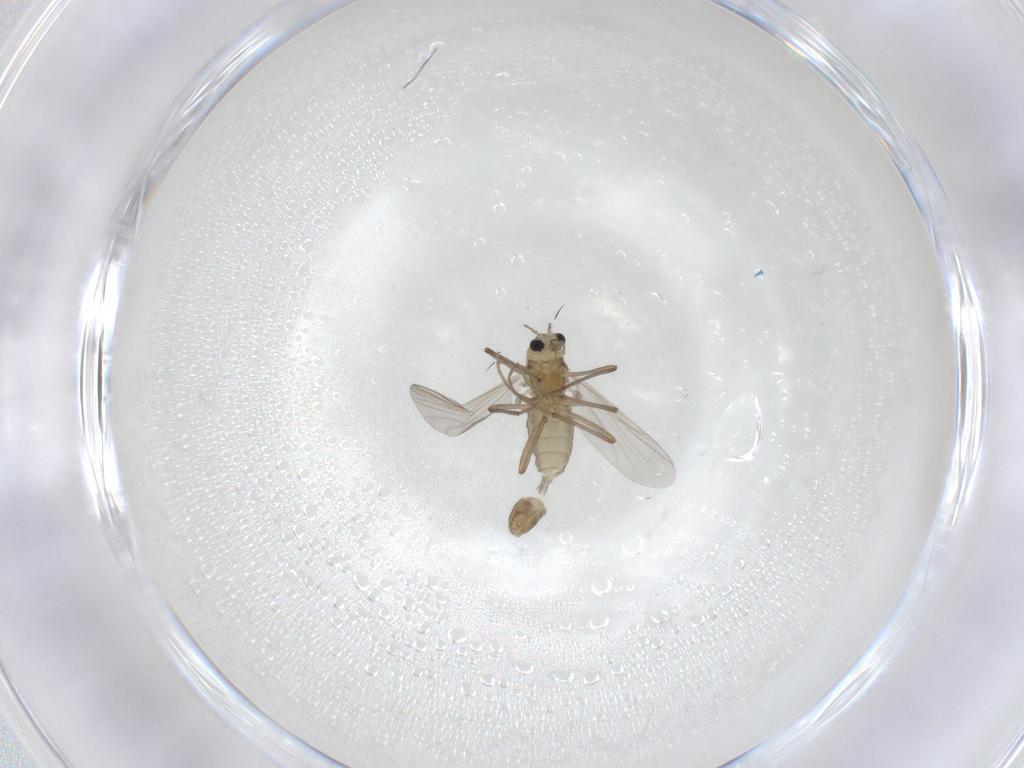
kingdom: Animalia
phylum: Arthropoda
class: Insecta
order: Diptera
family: Chironomidae
